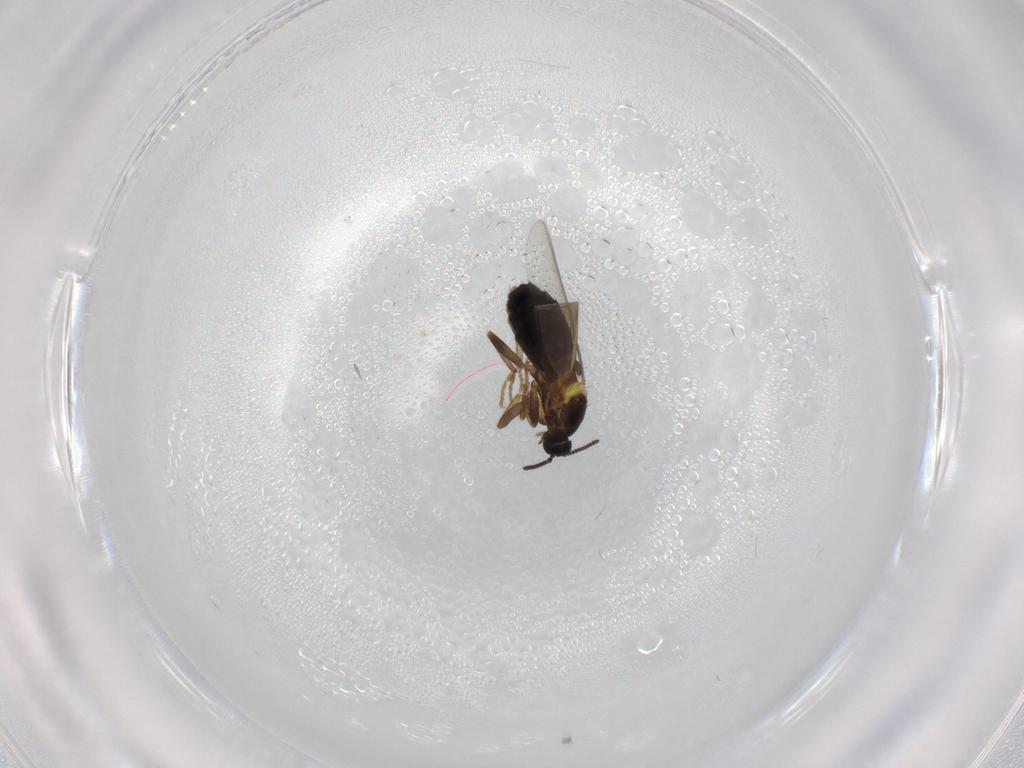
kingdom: Animalia
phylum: Arthropoda
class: Insecta
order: Diptera
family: Scatopsidae
